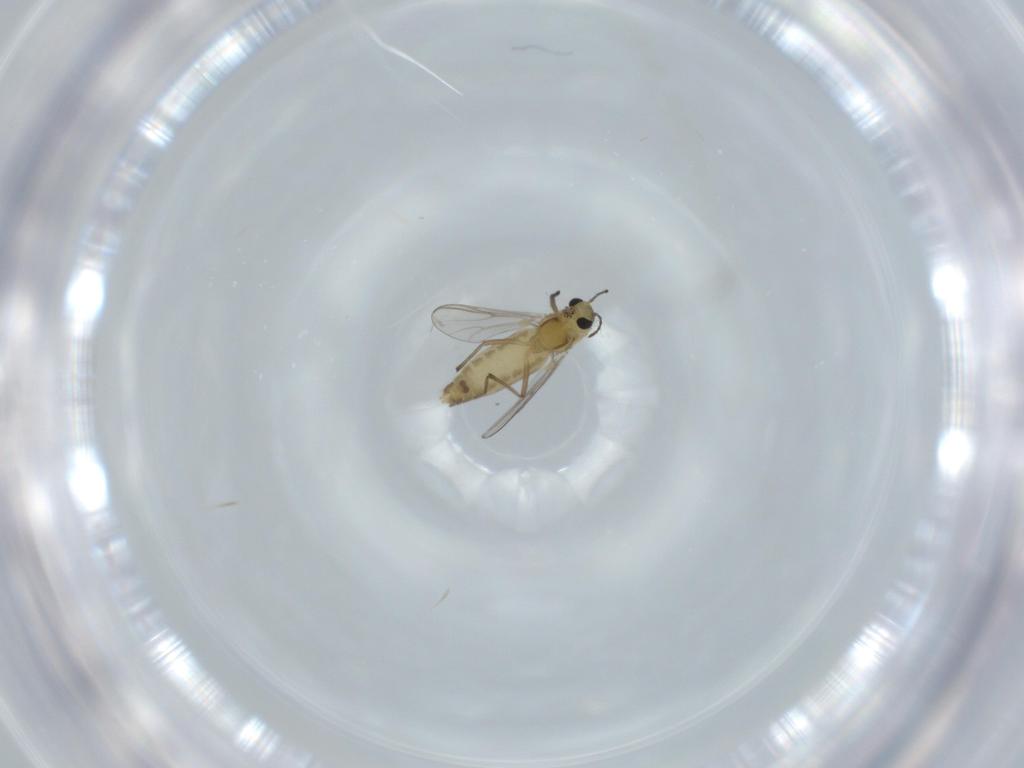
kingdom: Animalia
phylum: Arthropoda
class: Insecta
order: Diptera
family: Chironomidae
